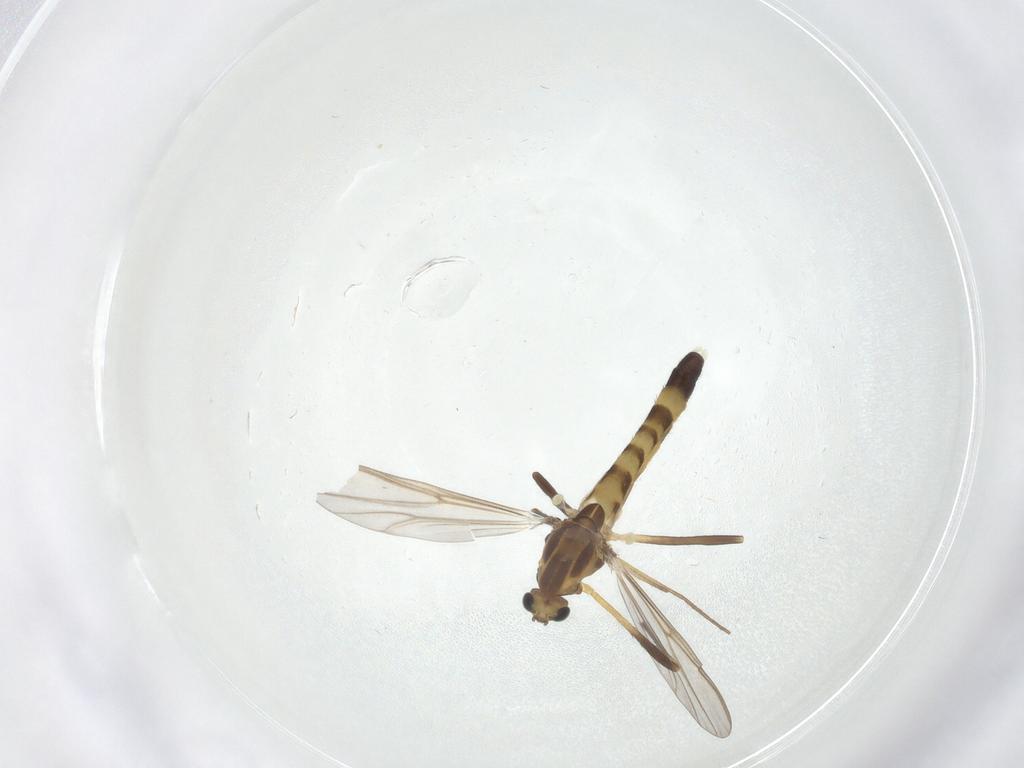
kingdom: Animalia
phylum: Arthropoda
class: Insecta
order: Diptera
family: Chironomidae
